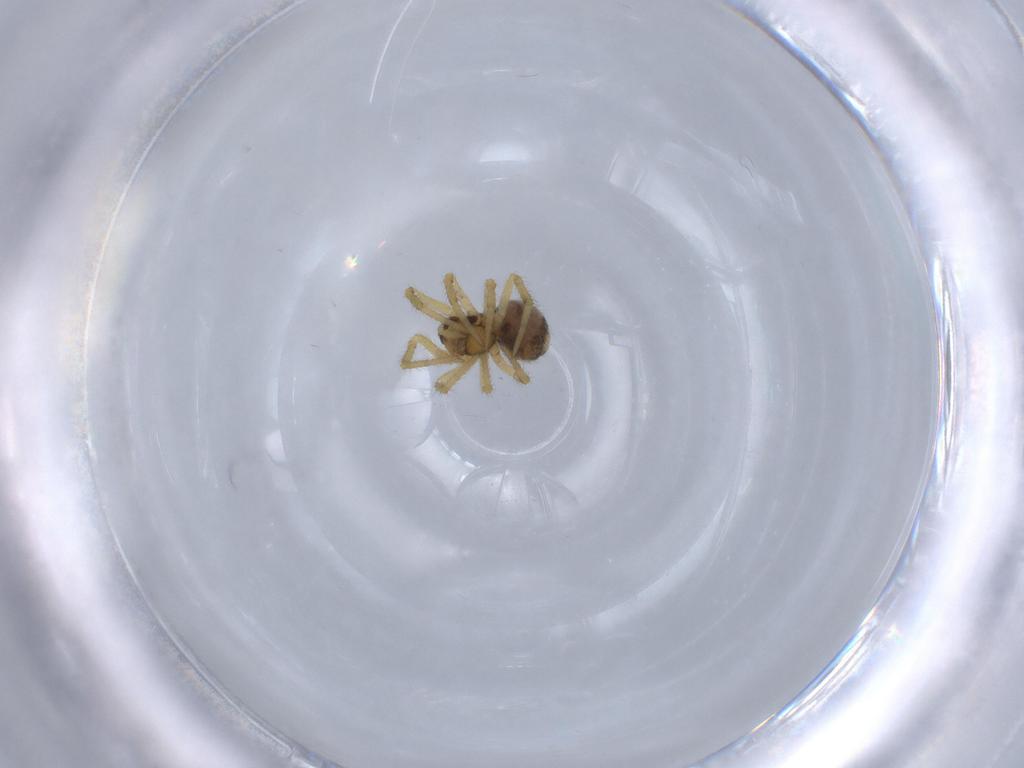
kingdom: Animalia
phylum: Arthropoda
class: Arachnida
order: Araneae
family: Theridiidae
